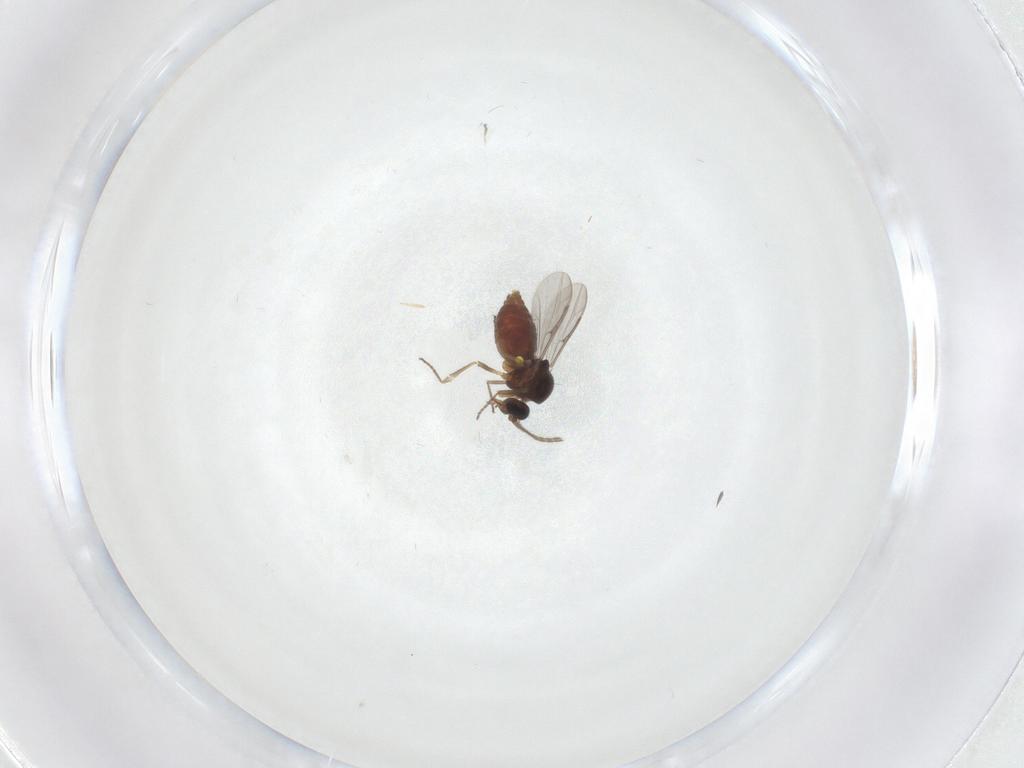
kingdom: Animalia
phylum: Arthropoda
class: Insecta
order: Diptera
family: Ceratopogonidae
